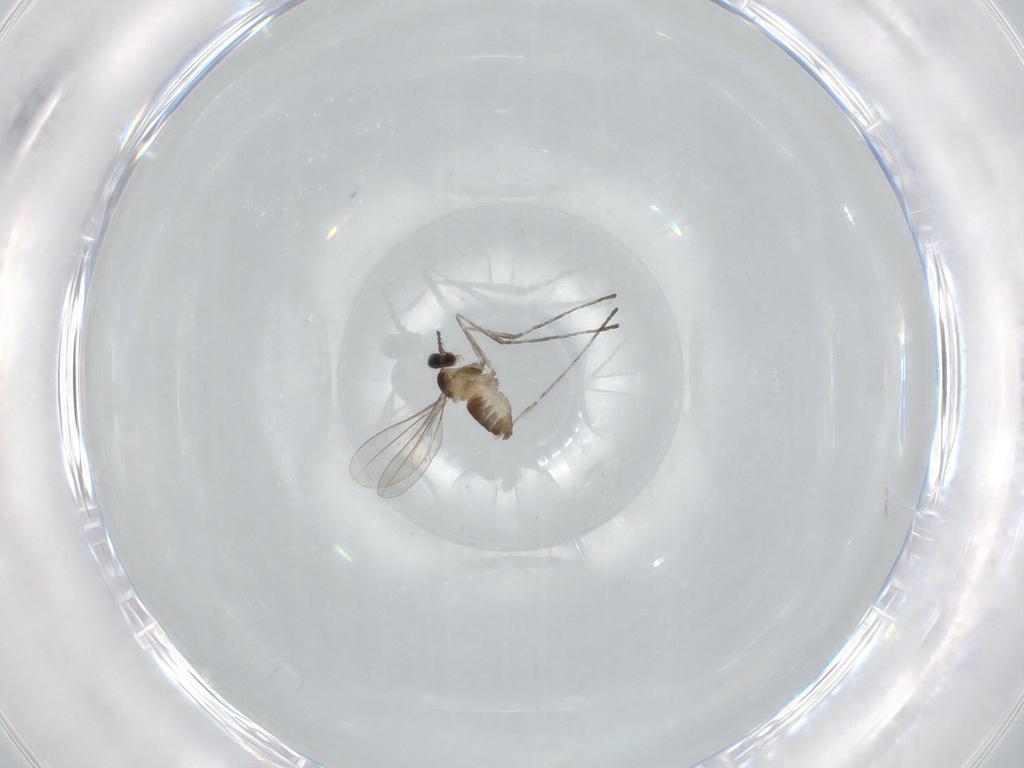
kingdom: Animalia
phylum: Arthropoda
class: Insecta
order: Diptera
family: Cecidomyiidae
